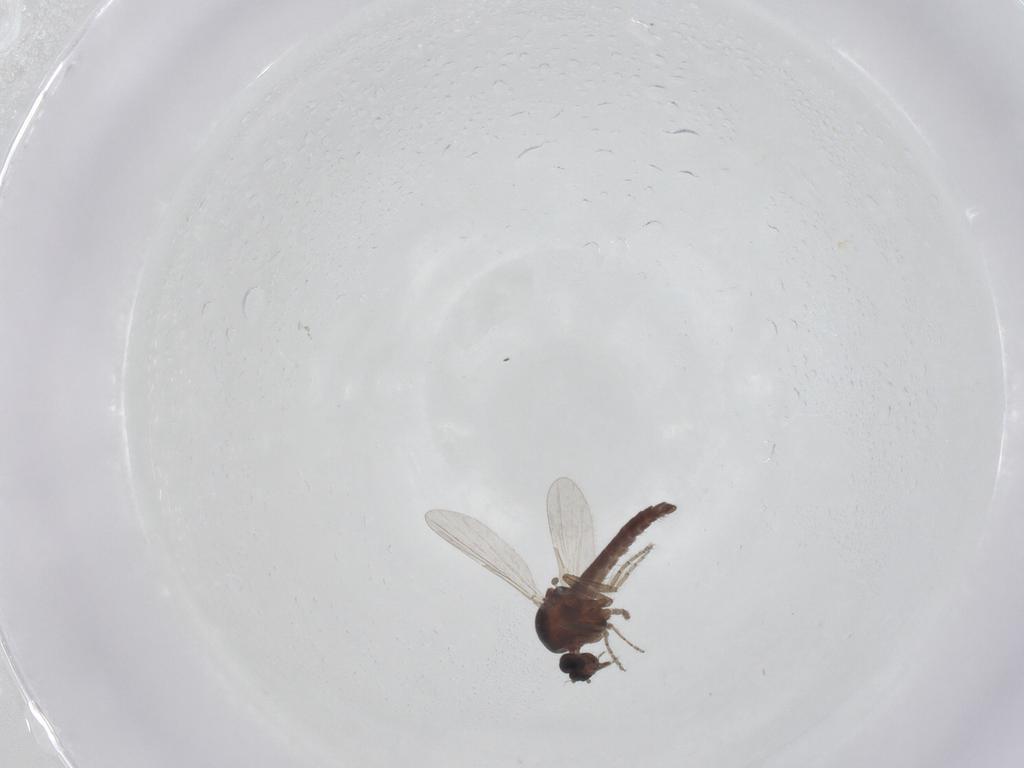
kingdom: Animalia
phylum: Arthropoda
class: Insecta
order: Diptera
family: Ceratopogonidae
